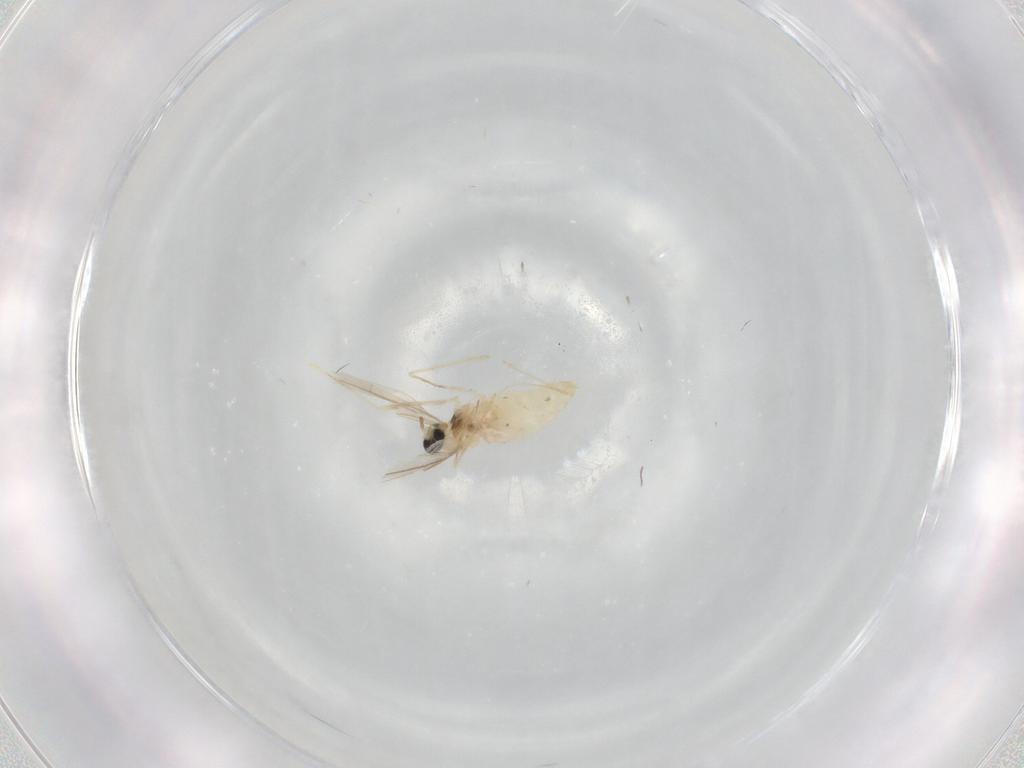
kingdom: Animalia
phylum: Arthropoda
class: Insecta
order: Diptera
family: Cecidomyiidae
